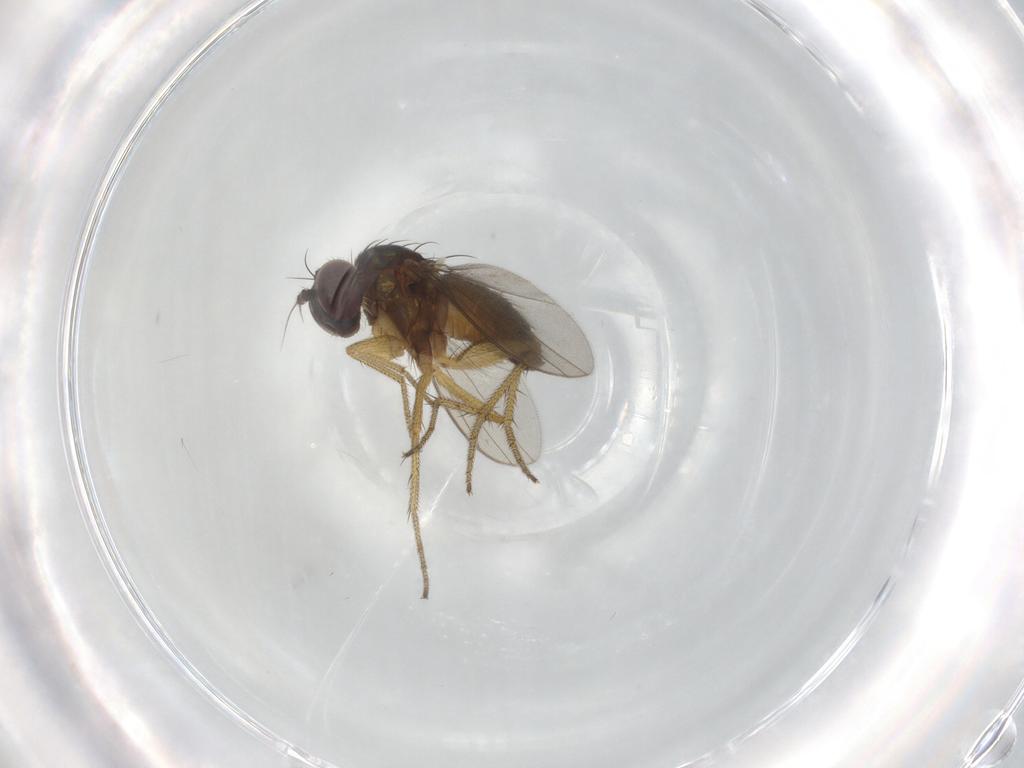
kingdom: Animalia
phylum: Arthropoda
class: Insecta
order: Diptera
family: Dolichopodidae
